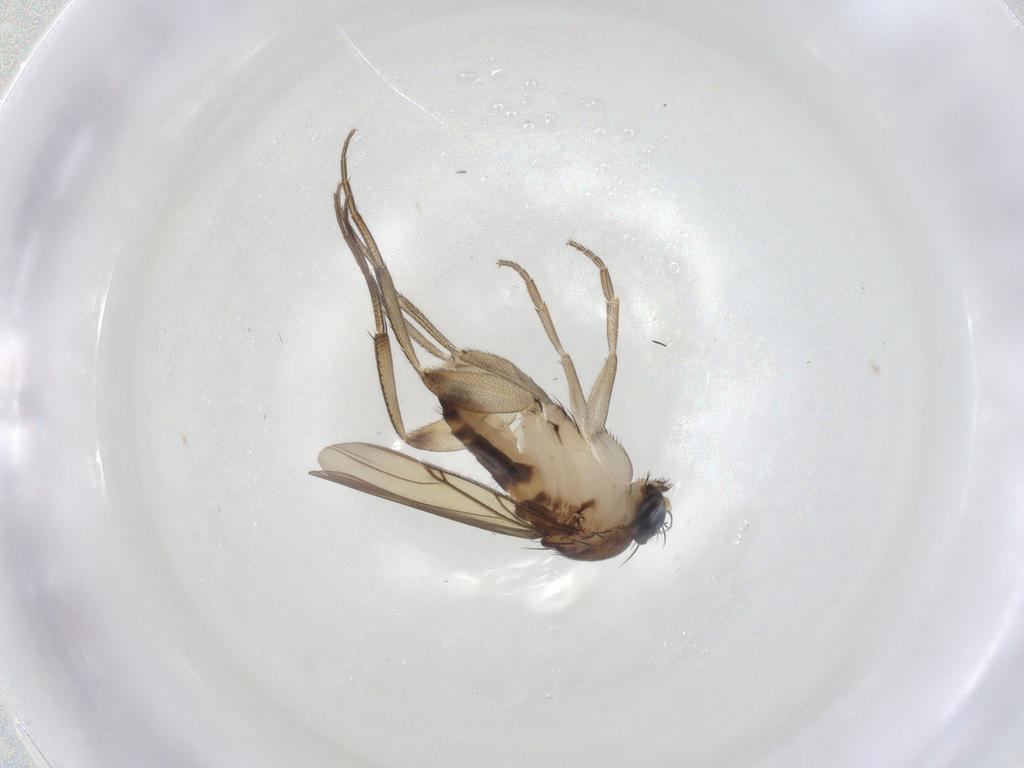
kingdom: Animalia
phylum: Arthropoda
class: Insecta
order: Diptera
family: Phoridae
